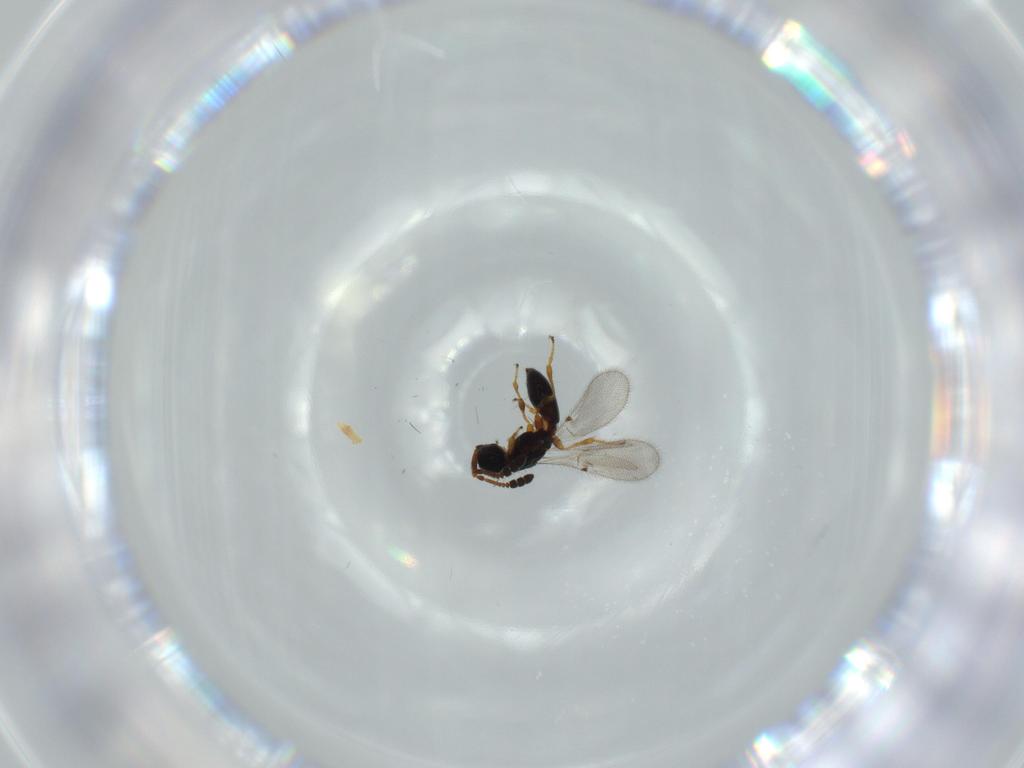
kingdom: Animalia
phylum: Arthropoda
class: Insecta
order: Hymenoptera
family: Diapriidae
